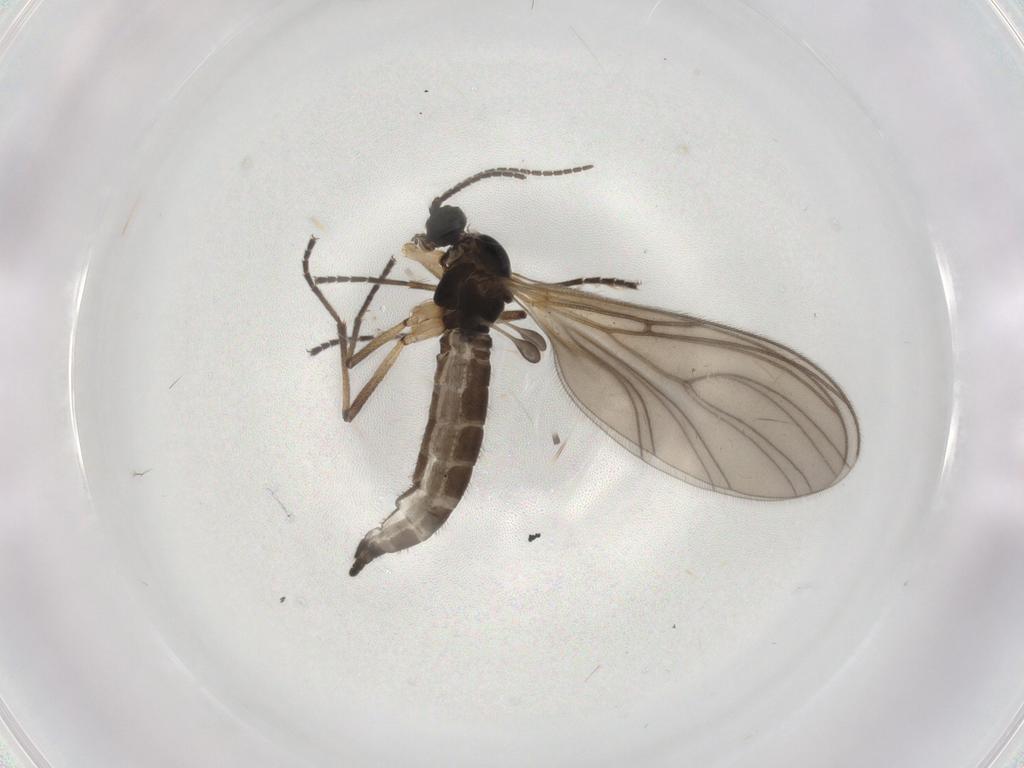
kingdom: Animalia
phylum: Arthropoda
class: Insecta
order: Diptera
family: Sciaridae
